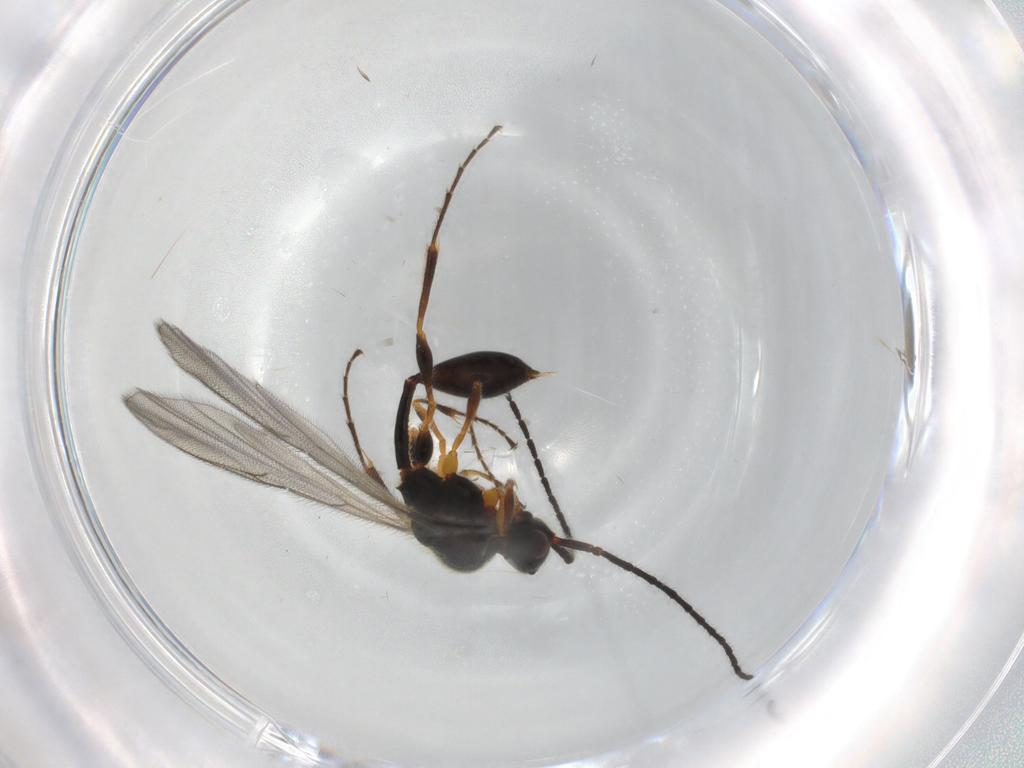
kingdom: Animalia
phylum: Arthropoda
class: Insecta
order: Hymenoptera
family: Diapriidae
